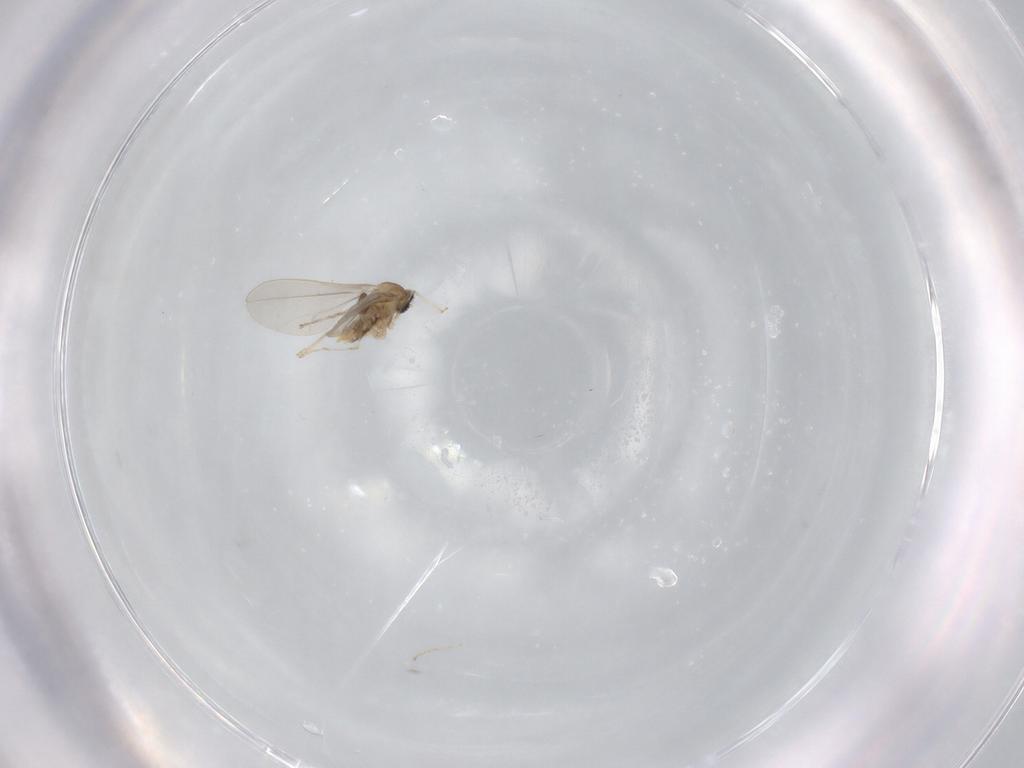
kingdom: Animalia
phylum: Arthropoda
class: Insecta
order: Diptera
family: Cecidomyiidae
